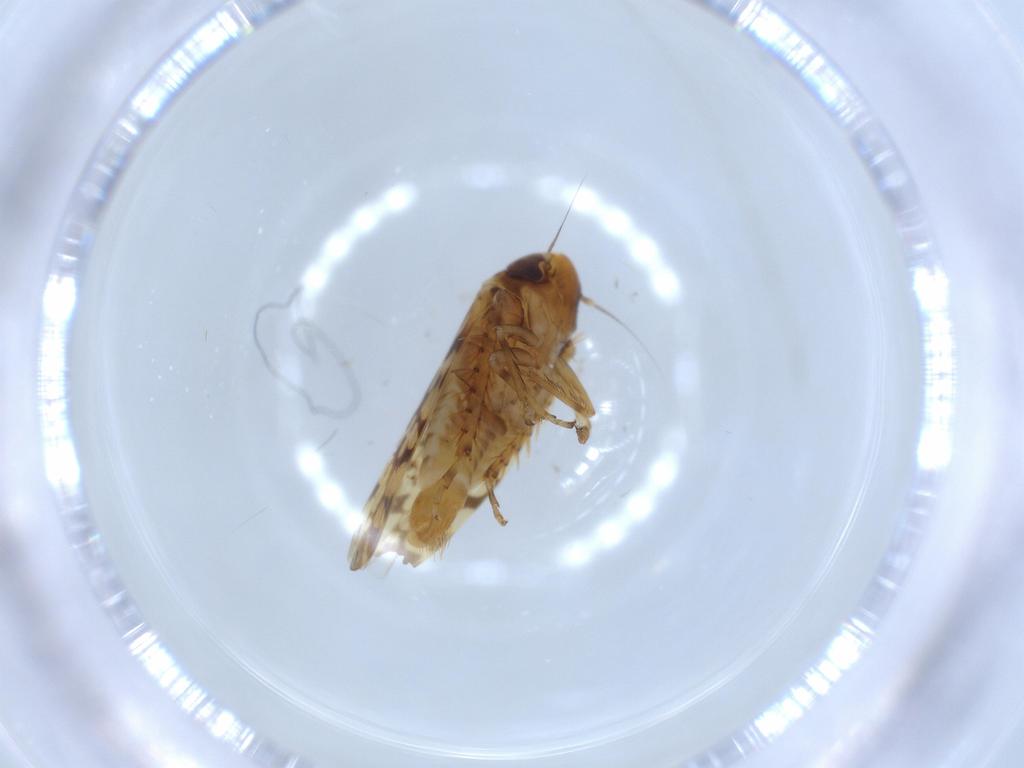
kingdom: Animalia
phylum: Arthropoda
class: Insecta
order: Hemiptera
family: Cicadellidae
